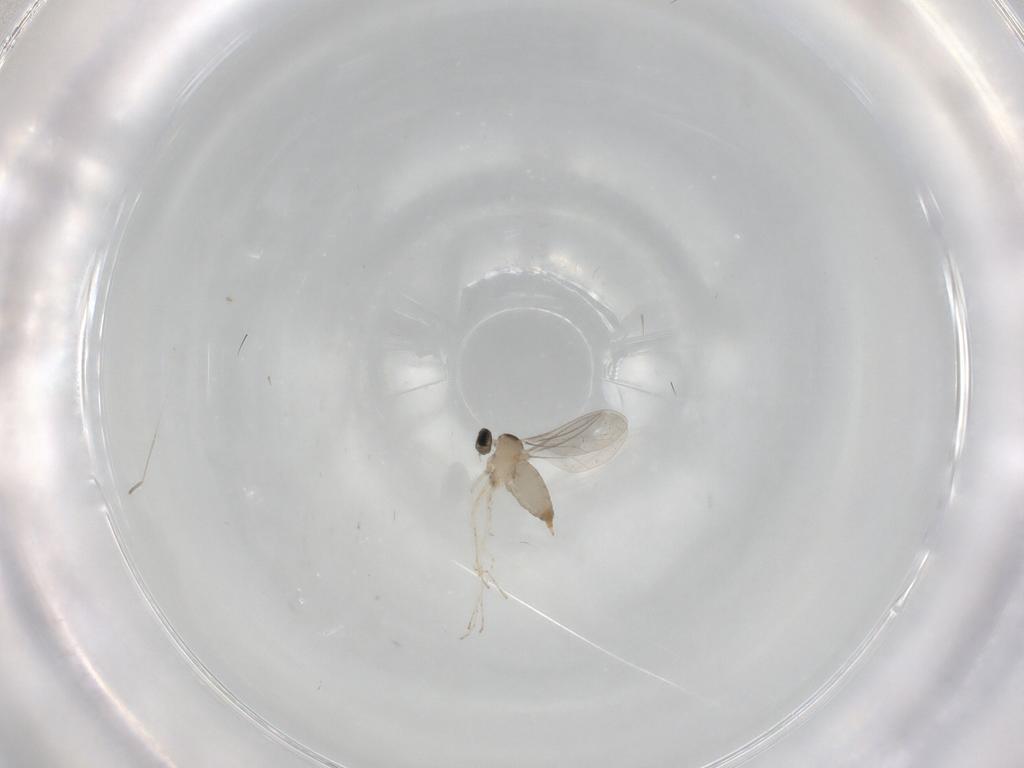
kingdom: Animalia
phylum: Arthropoda
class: Insecta
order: Diptera
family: Cecidomyiidae
